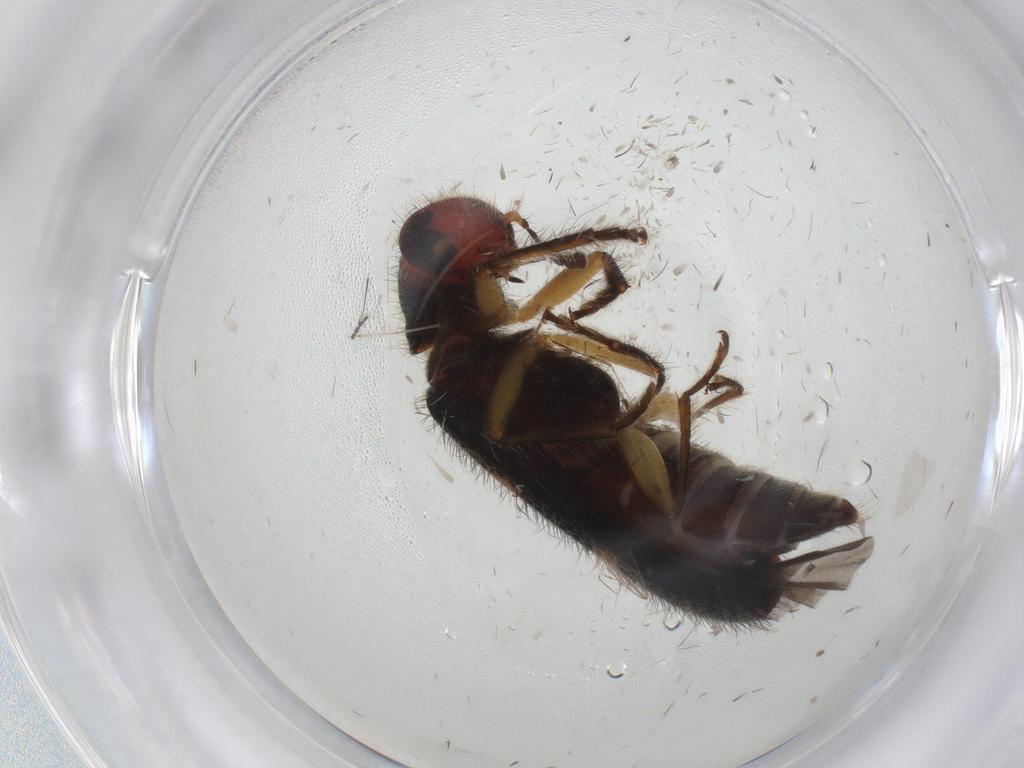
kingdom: Animalia
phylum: Arthropoda
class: Insecta
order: Coleoptera
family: Cleridae
